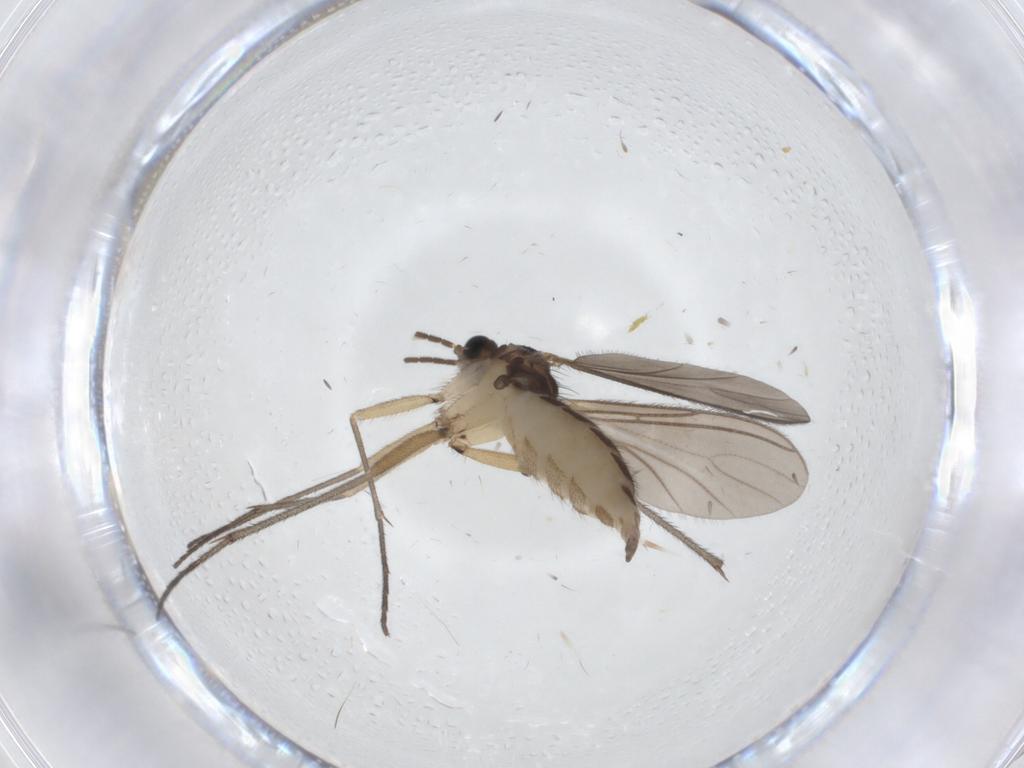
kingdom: Animalia
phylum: Arthropoda
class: Insecta
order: Diptera
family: Sciaridae
